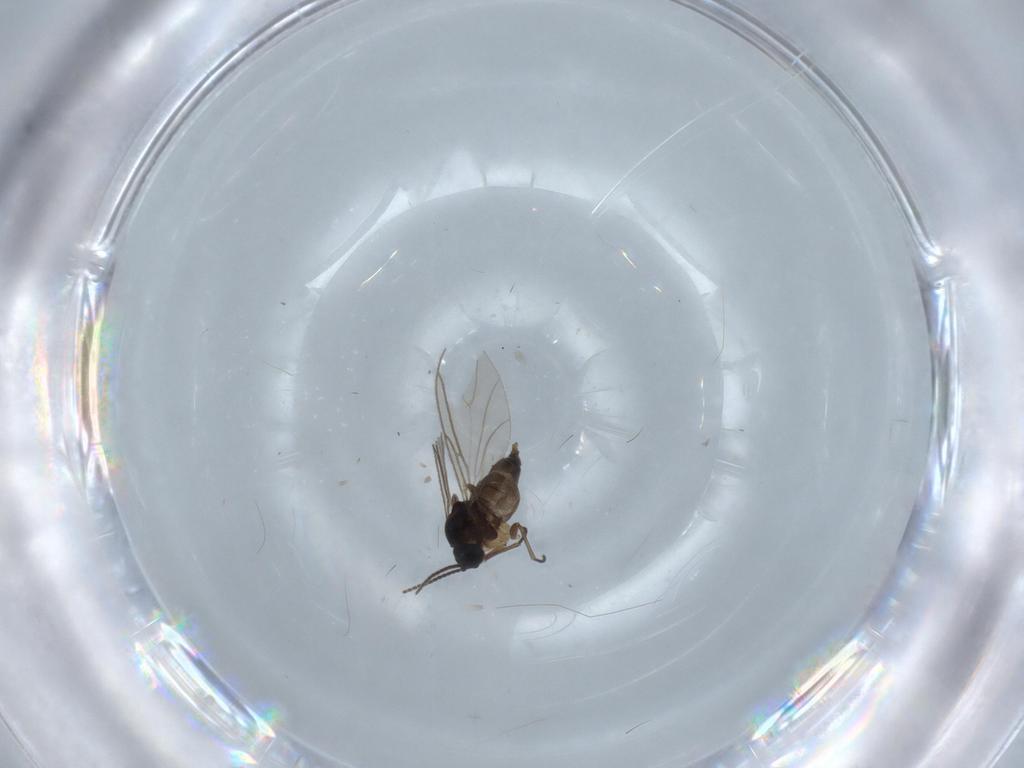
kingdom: Animalia
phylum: Arthropoda
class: Insecta
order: Diptera
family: Sciaridae
